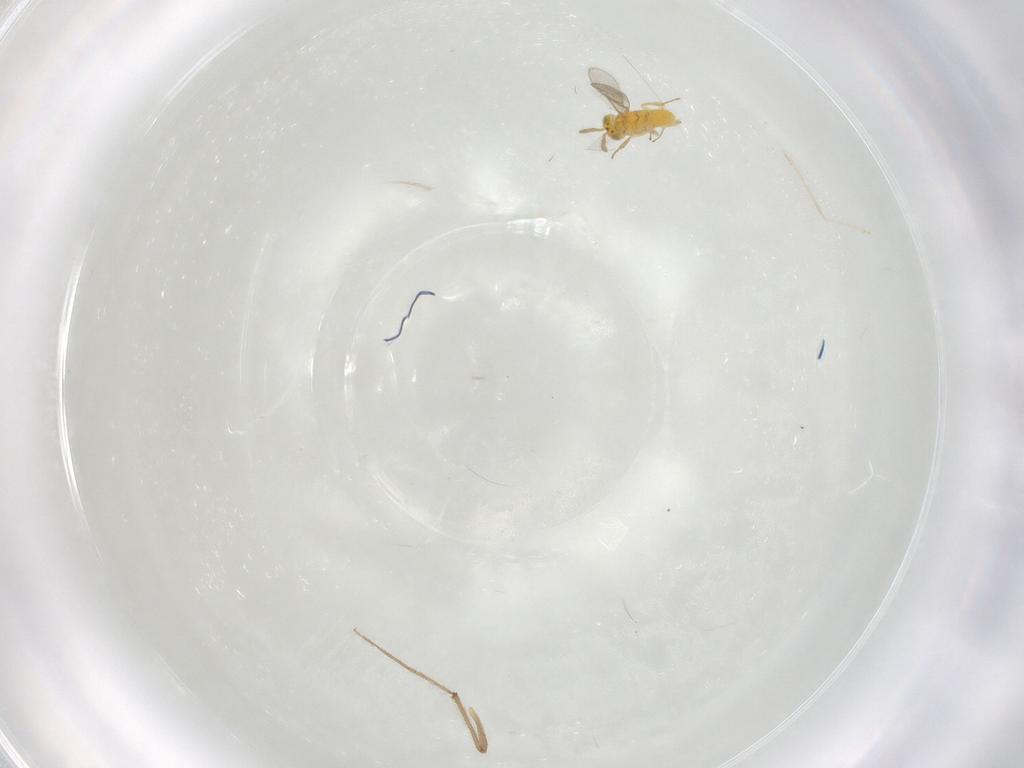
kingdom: Animalia
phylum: Arthropoda
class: Insecta
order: Hymenoptera
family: Aphelinidae
